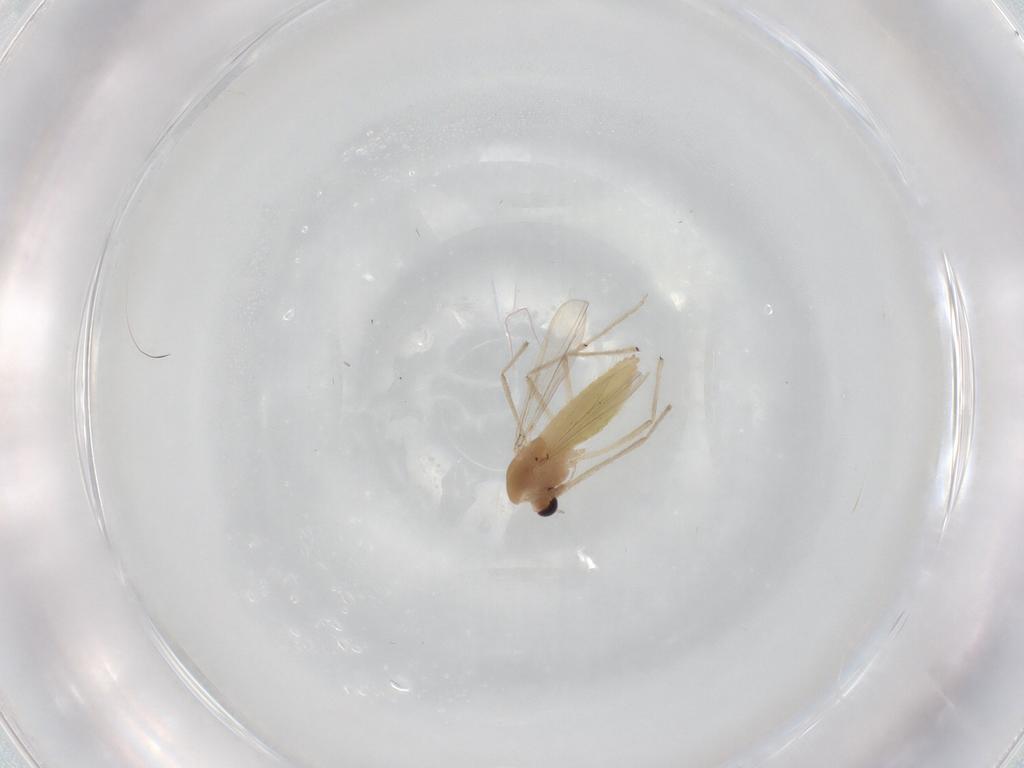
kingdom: Animalia
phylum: Arthropoda
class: Insecta
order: Diptera
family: Chironomidae
